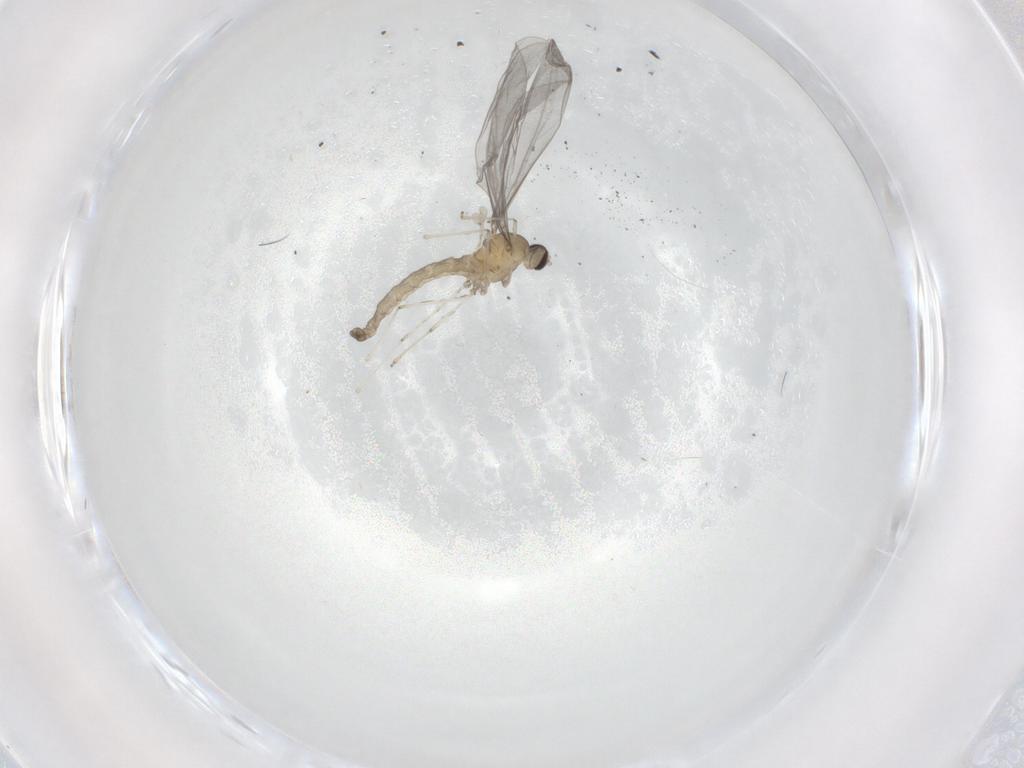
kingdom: Animalia
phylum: Arthropoda
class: Insecta
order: Diptera
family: Limoniidae
